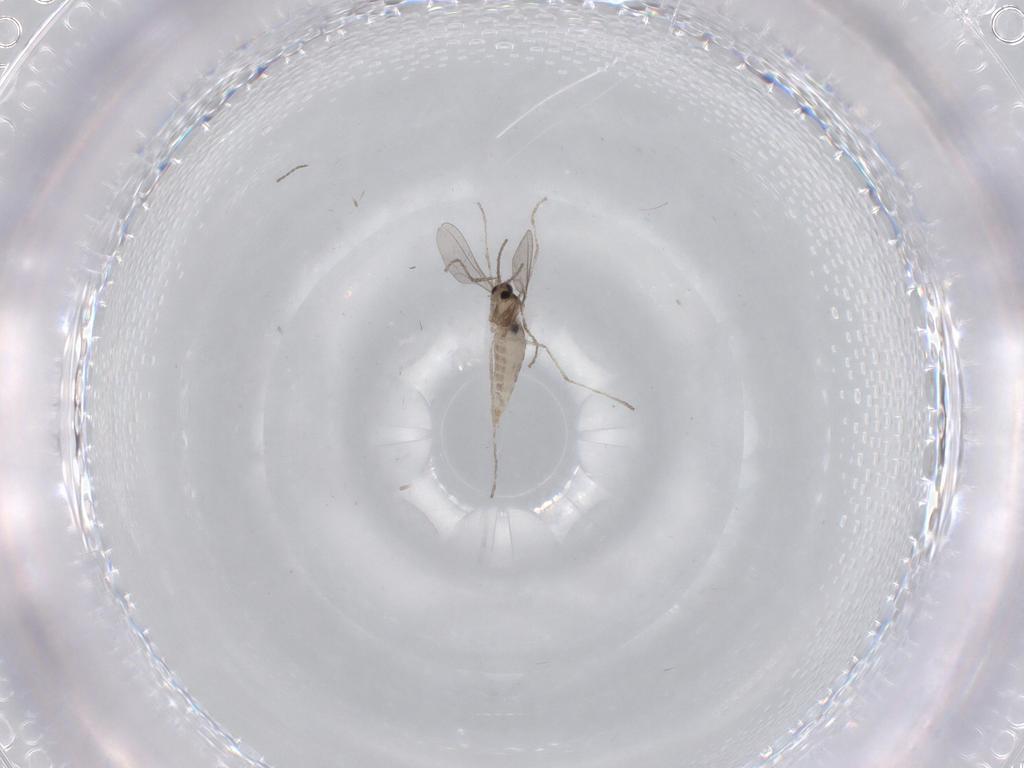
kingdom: Animalia
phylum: Arthropoda
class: Insecta
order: Diptera
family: Cecidomyiidae
